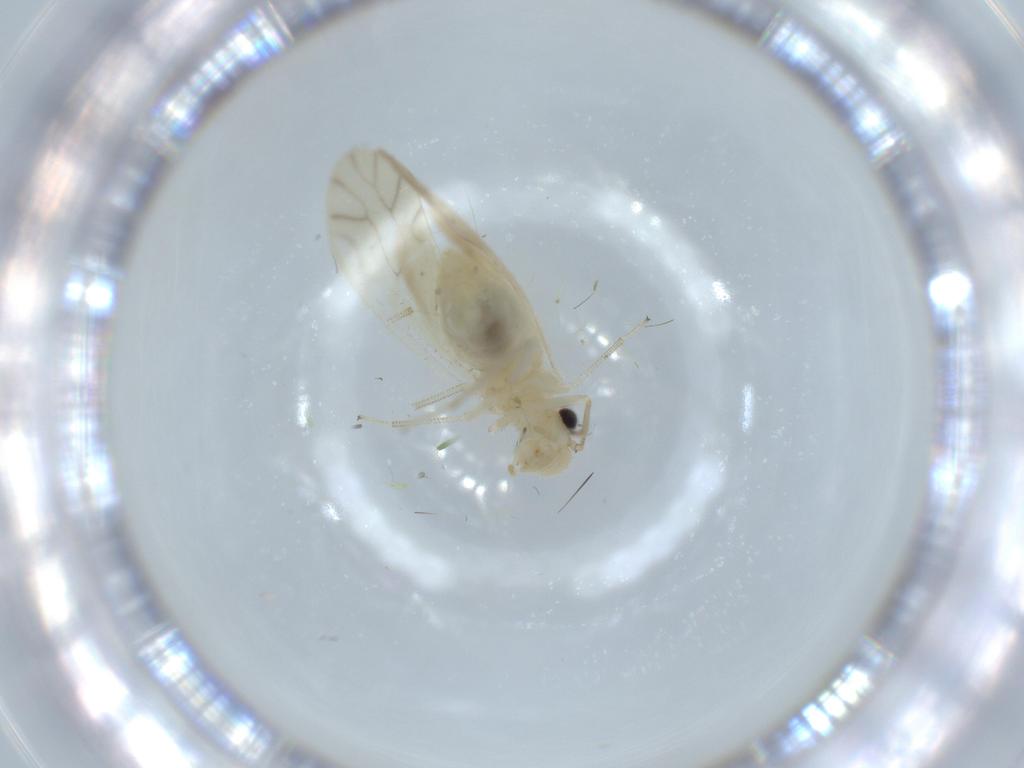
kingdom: Animalia
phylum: Arthropoda
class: Insecta
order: Psocodea
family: Caeciliusidae
